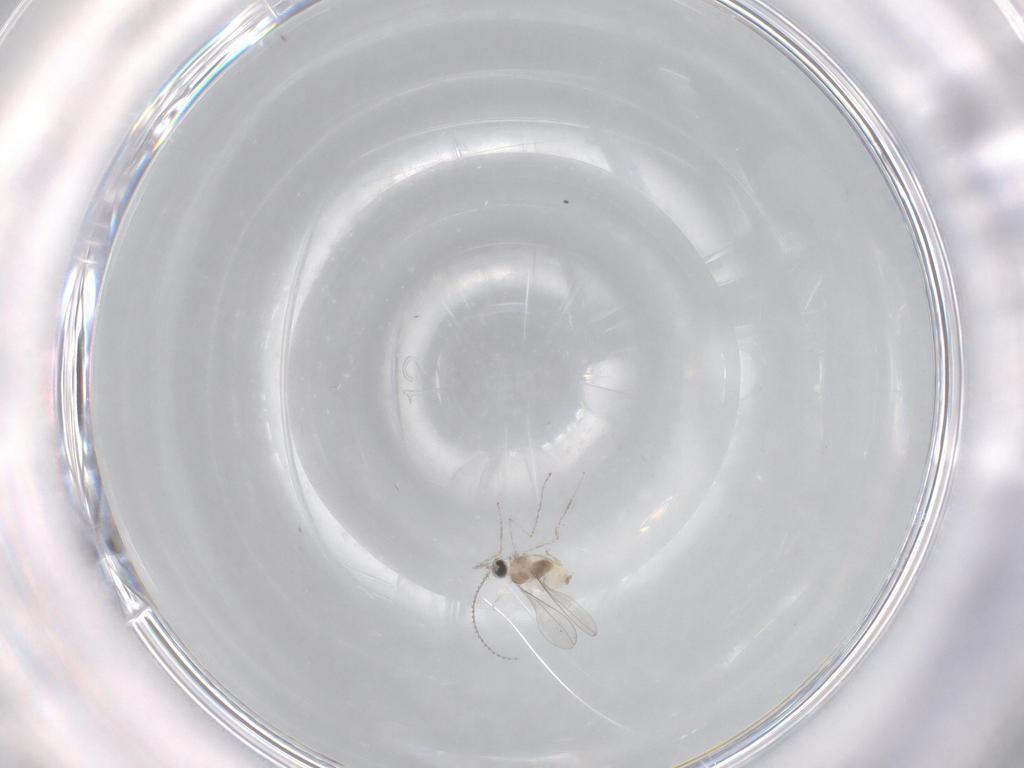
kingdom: Animalia
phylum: Arthropoda
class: Insecta
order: Diptera
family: Cecidomyiidae
